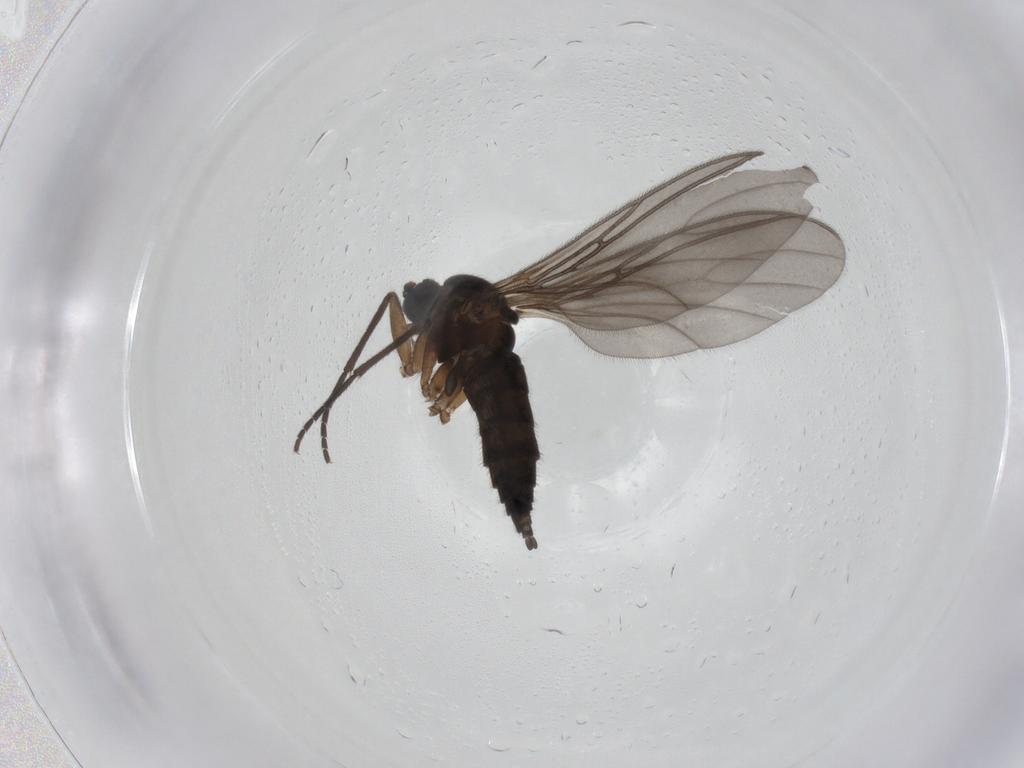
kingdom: Animalia
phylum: Arthropoda
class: Insecta
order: Diptera
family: Sciaridae
